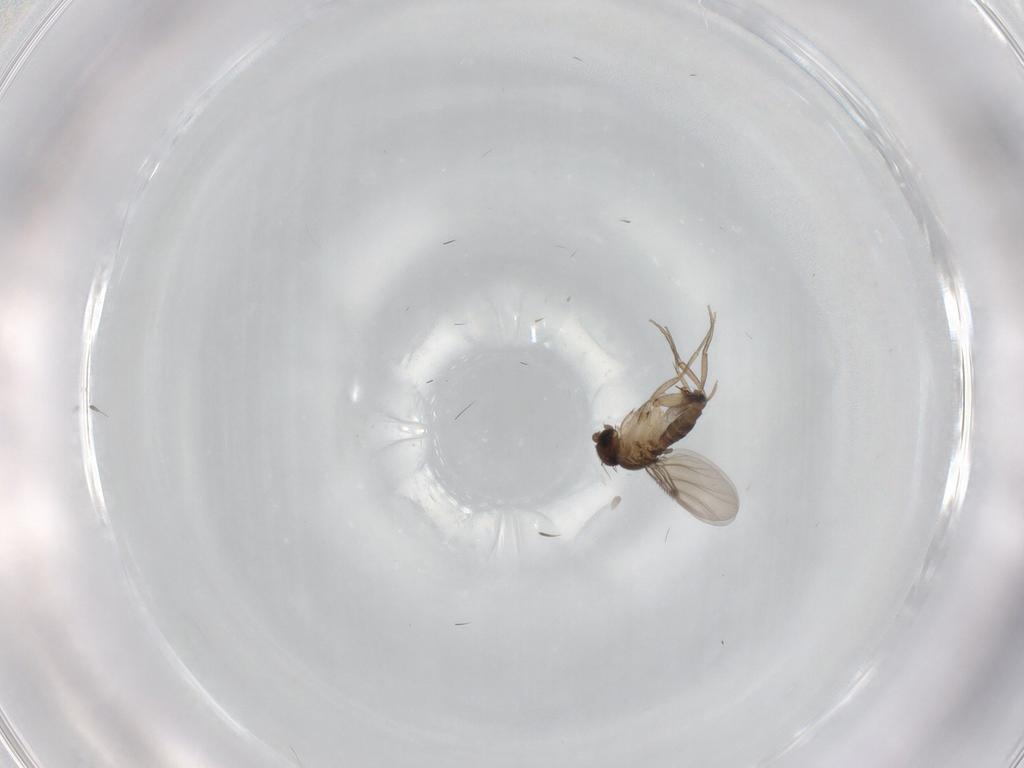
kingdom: Animalia
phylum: Arthropoda
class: Insecta
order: Diptera
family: Phoridae
